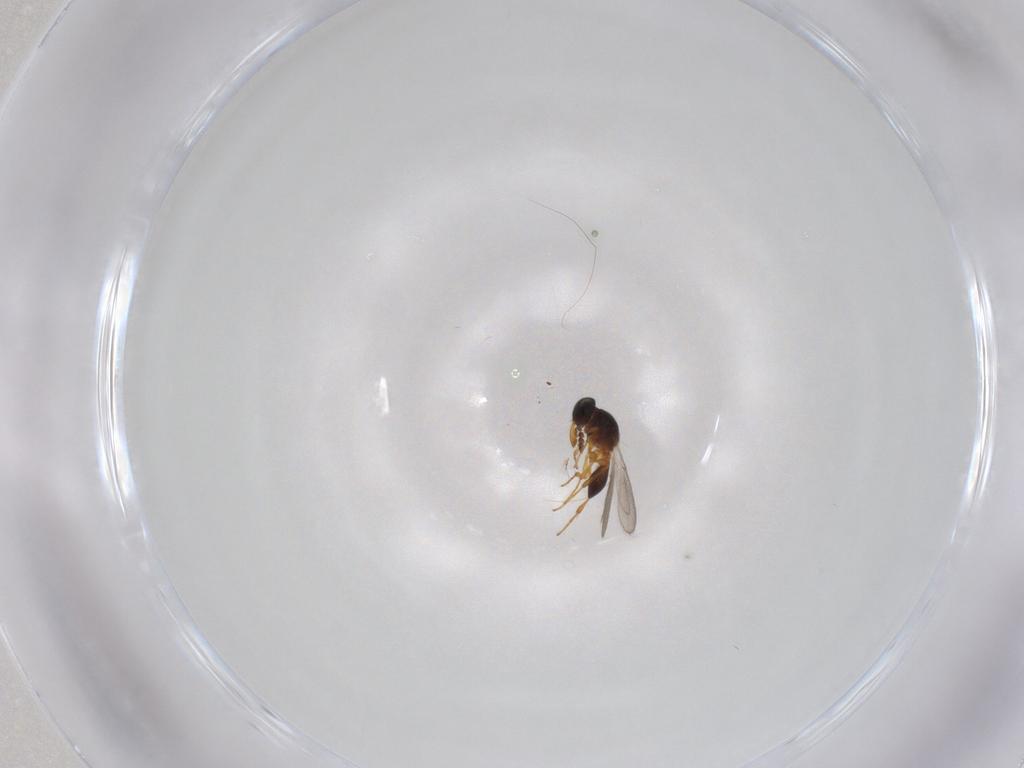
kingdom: Animalia
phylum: Arthropoda
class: Insecta
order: Hymenoptera
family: Platygastridae
